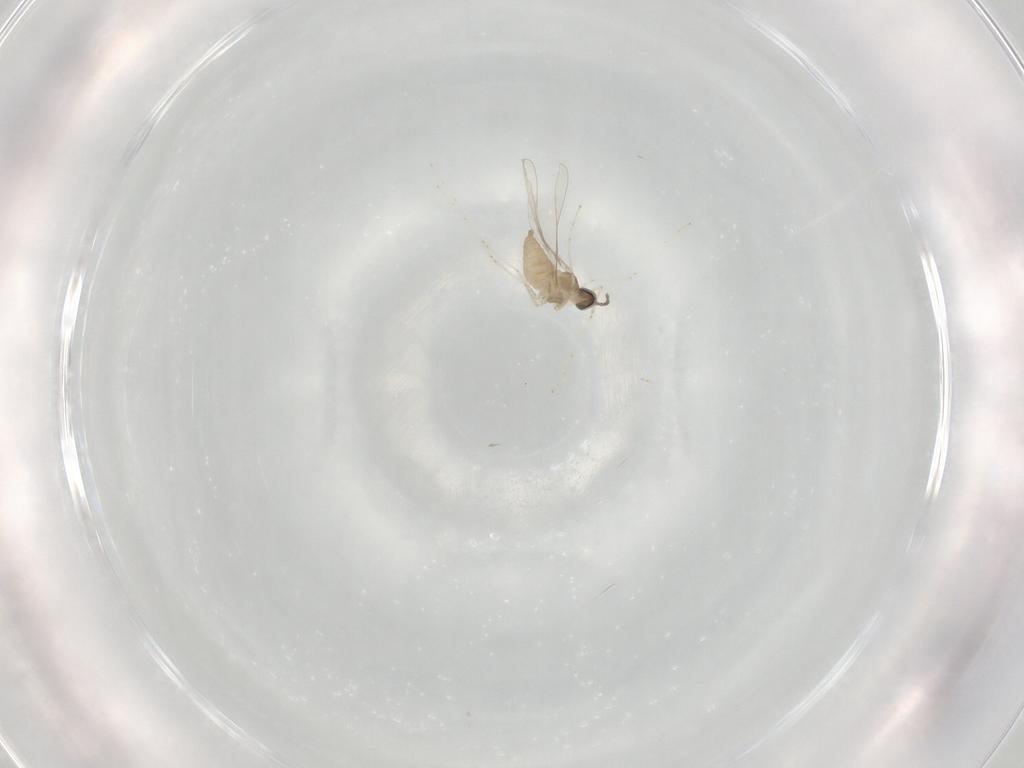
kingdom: Animalia
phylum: Arthropoda
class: Insecta
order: Diptera
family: Cecidomyiidae
